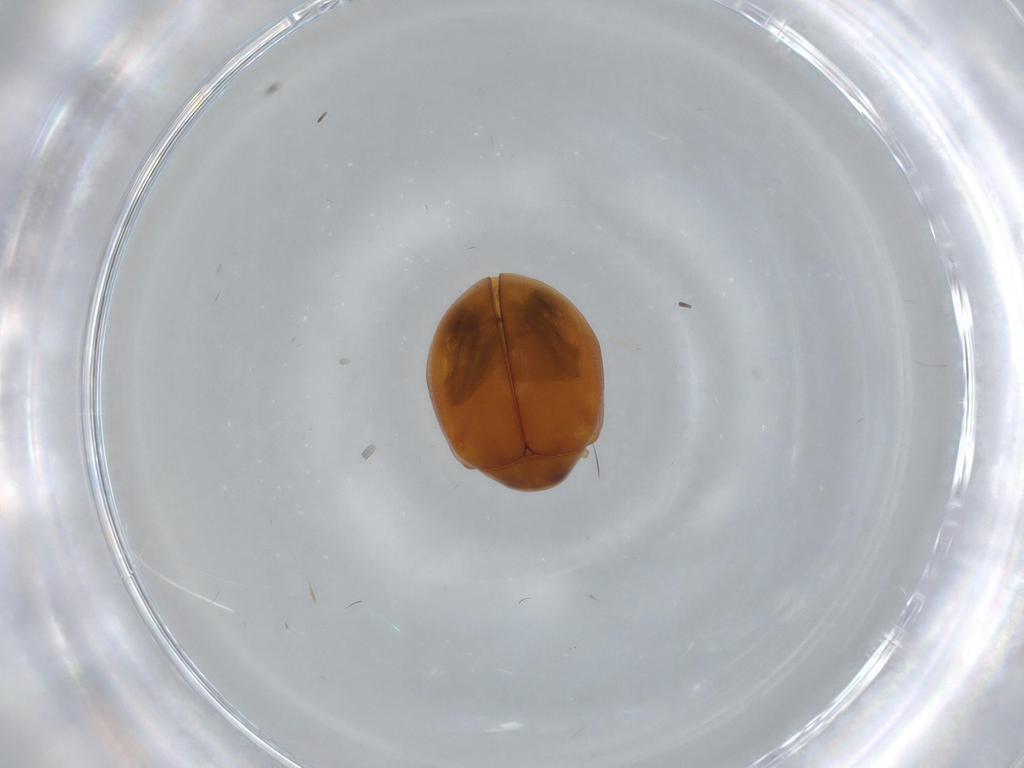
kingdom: Animalia
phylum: Arthropoda
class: Insecta
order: Coleoptera
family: Coccinellidae
